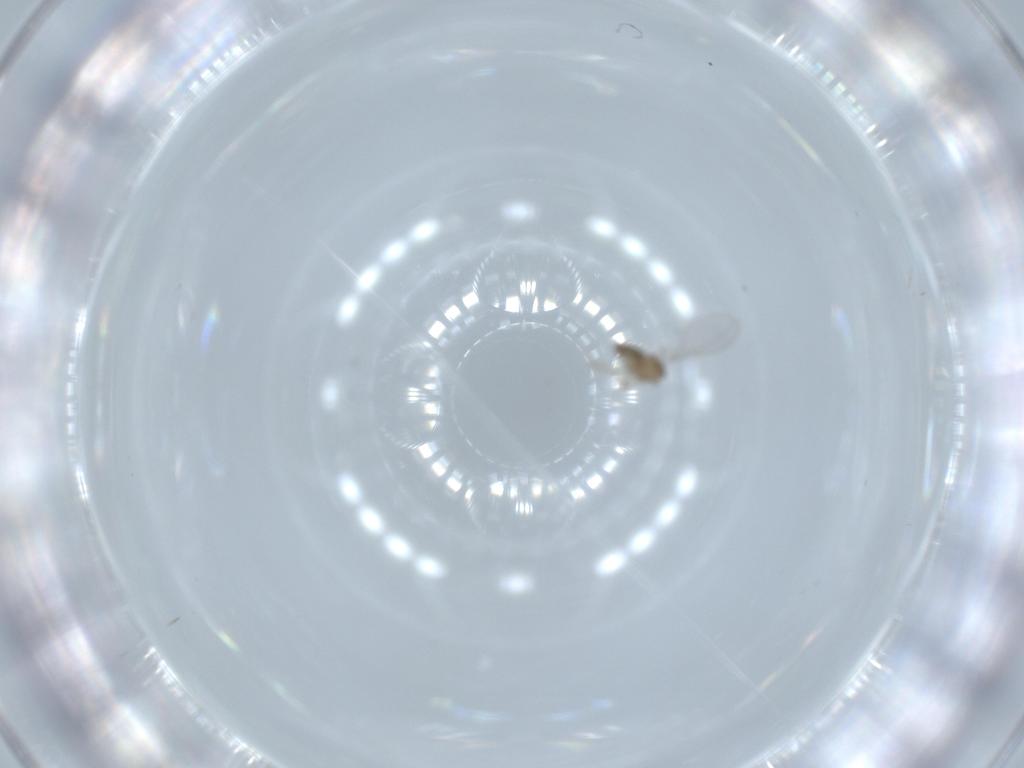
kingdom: Animalia
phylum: Arthropoda
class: Insecta
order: Diptera
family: Cecidomyiidae
